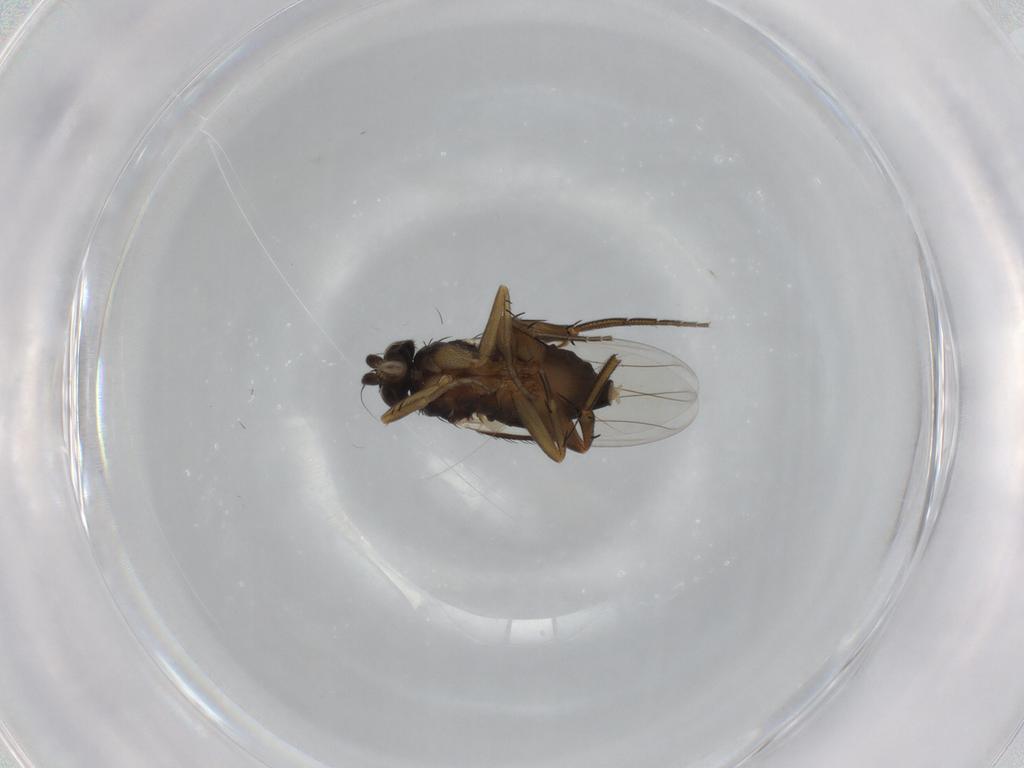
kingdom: Animalia
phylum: Arthropoda
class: Insecta
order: Diptera
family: Phoridae
